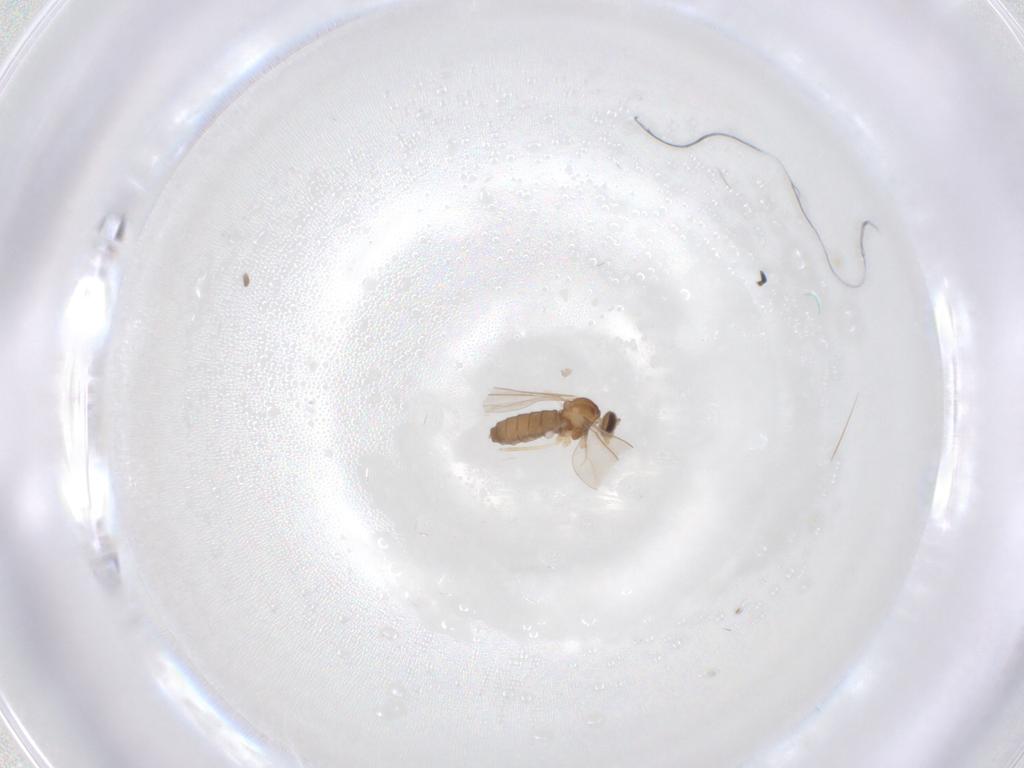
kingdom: Animalia
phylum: Arthropoda
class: Insecta
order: Diptera
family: Cecidomyiidae
